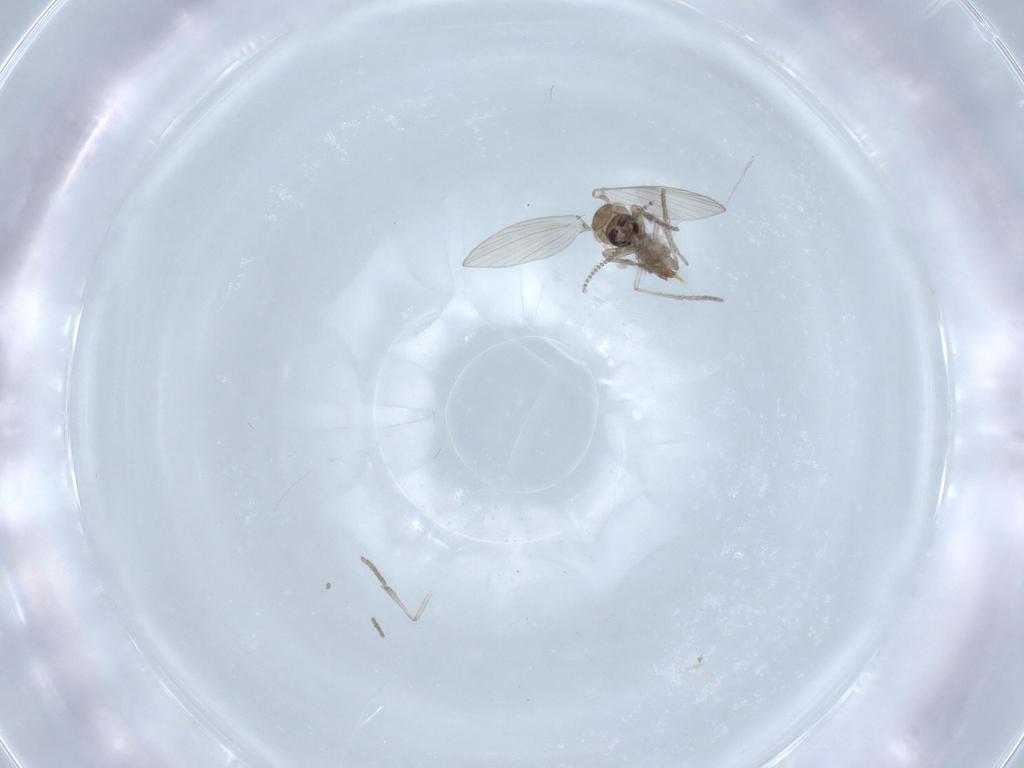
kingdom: Animalia
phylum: Arthropoda
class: Insecta
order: Diptera
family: Psychodidae
